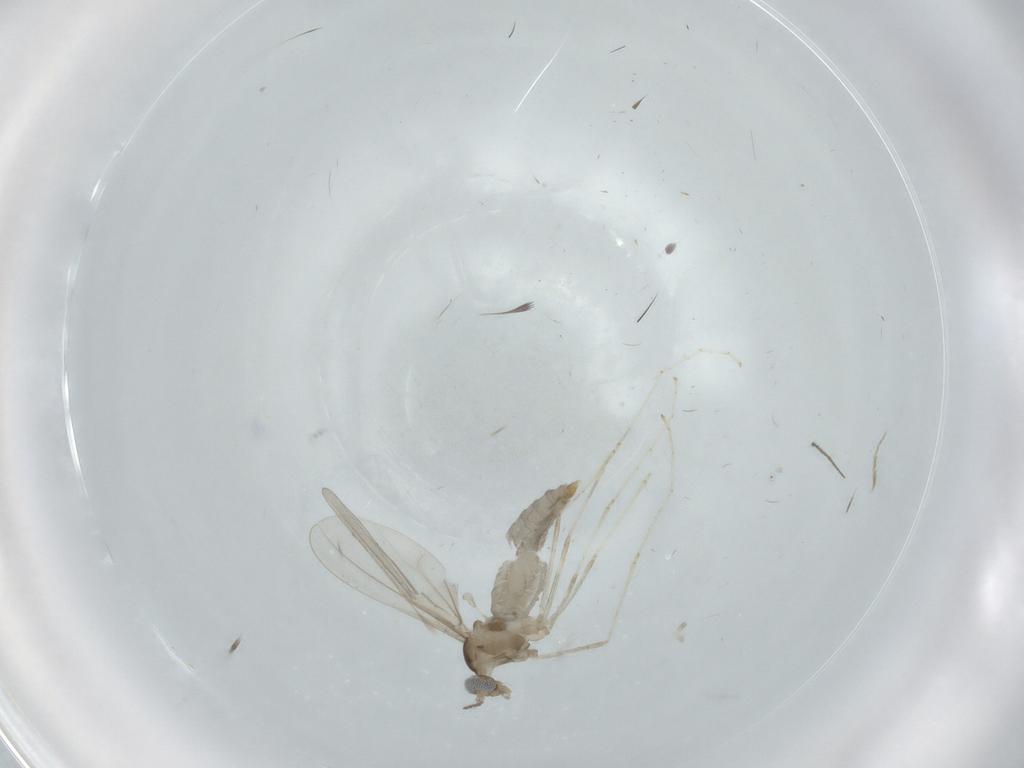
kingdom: Animalia
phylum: Arthropoda
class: Insecta
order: Diptera
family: Cecidomyiidae
